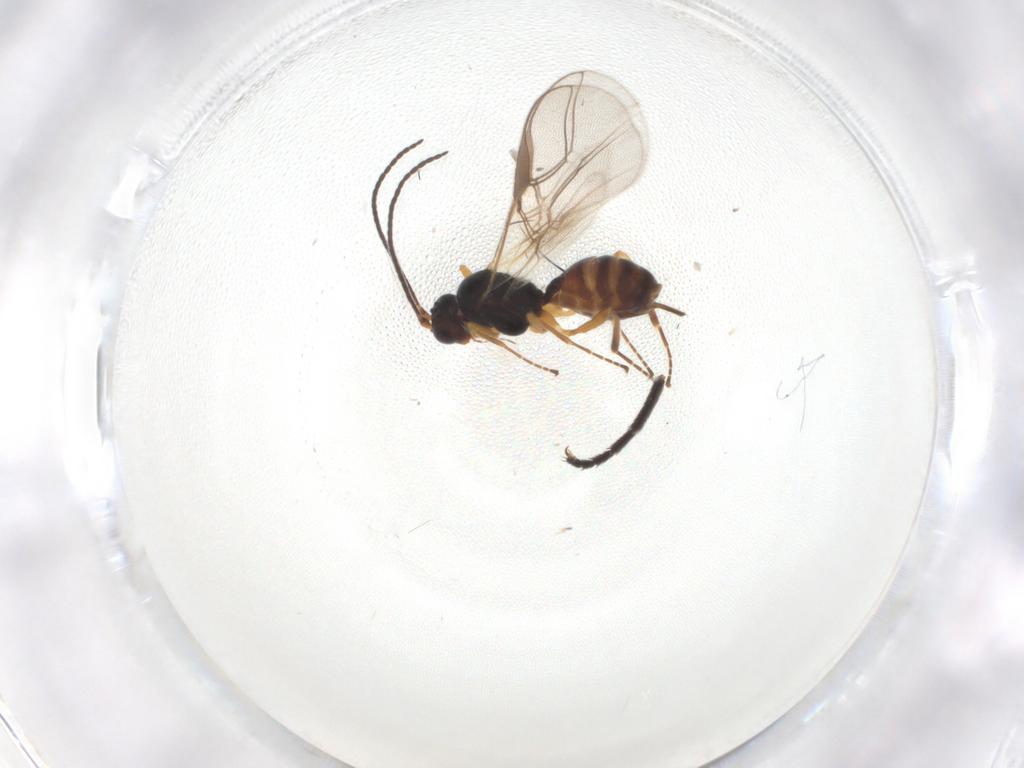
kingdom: Animalia
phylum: Arthropoda
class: Insecta
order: Hymenoptera
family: Braconidae
